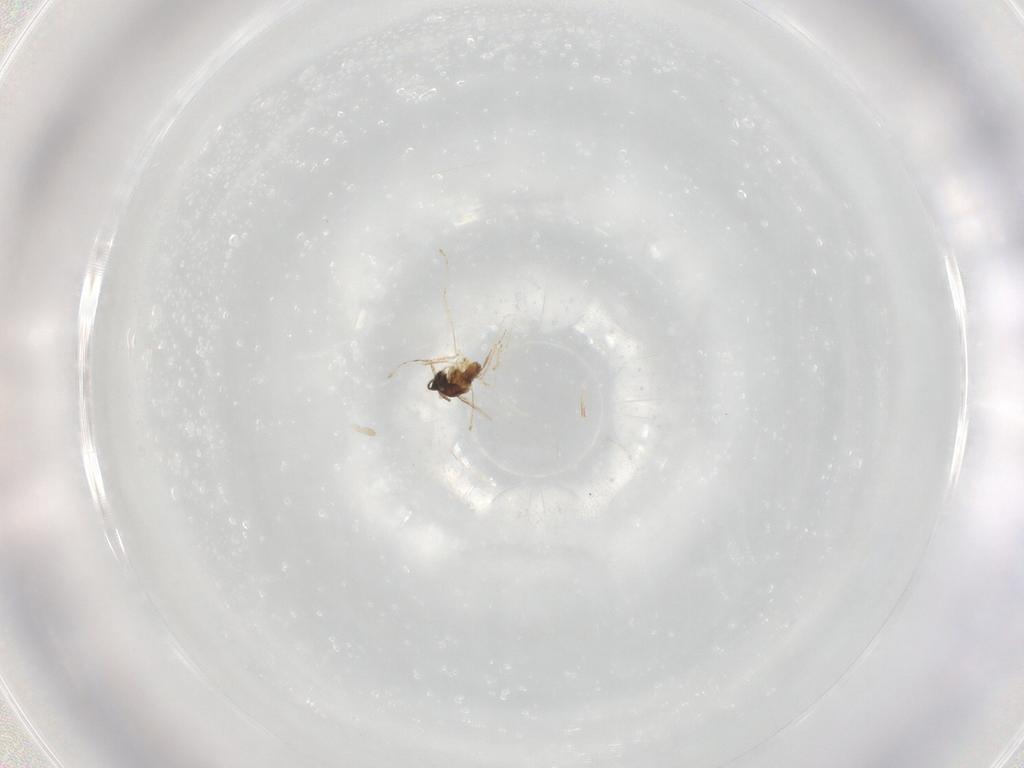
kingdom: Animalia
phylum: Arthropoda
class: Insecta
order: Diptera
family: Cecidomyiidae
